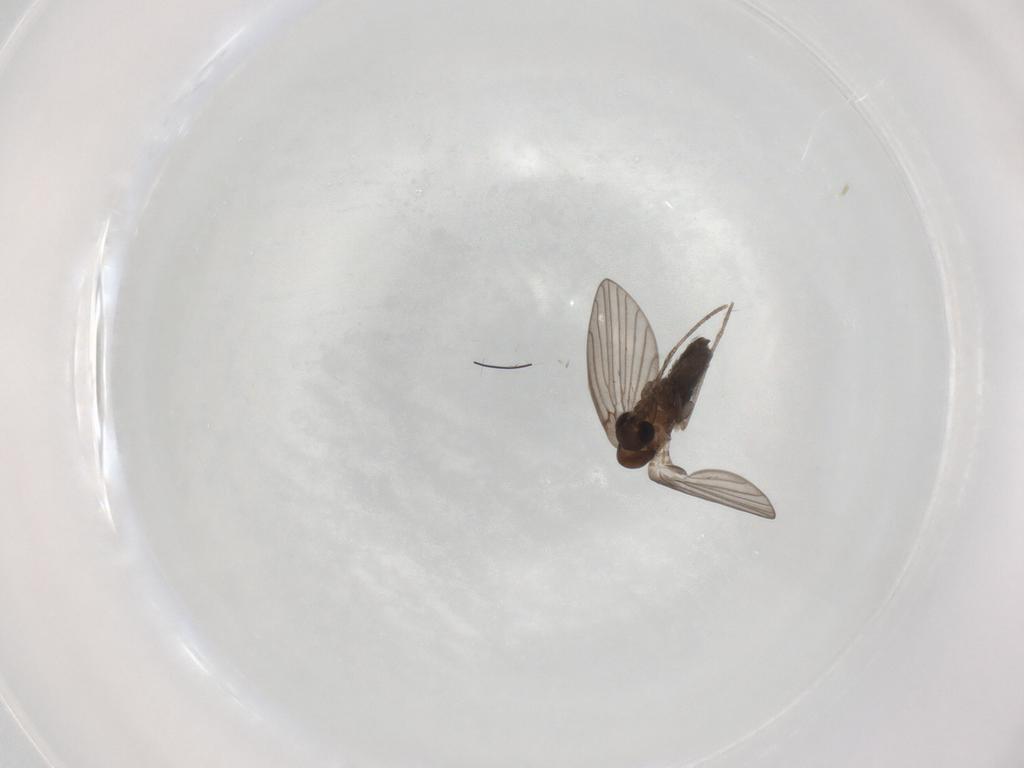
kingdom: Animalia
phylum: Arthropoda
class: Insecta
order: Diptera
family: Psychodidae
